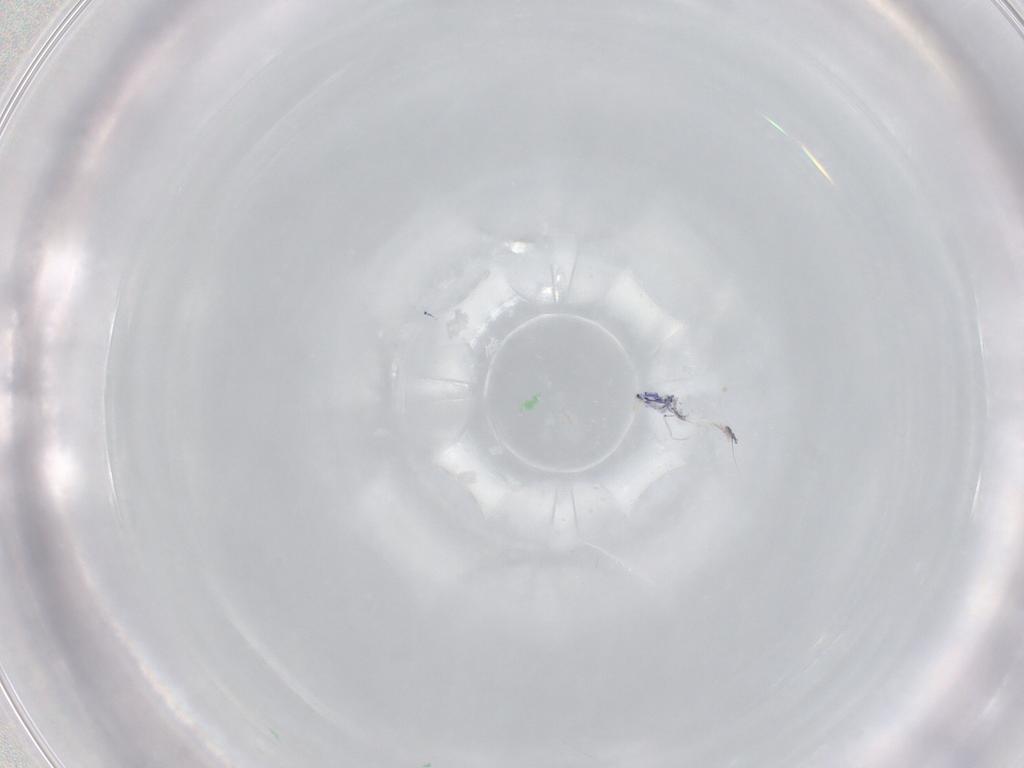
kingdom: Animalia
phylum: Arthropoda
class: Collembola
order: Entomobryomorpha
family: Entomobryidae
